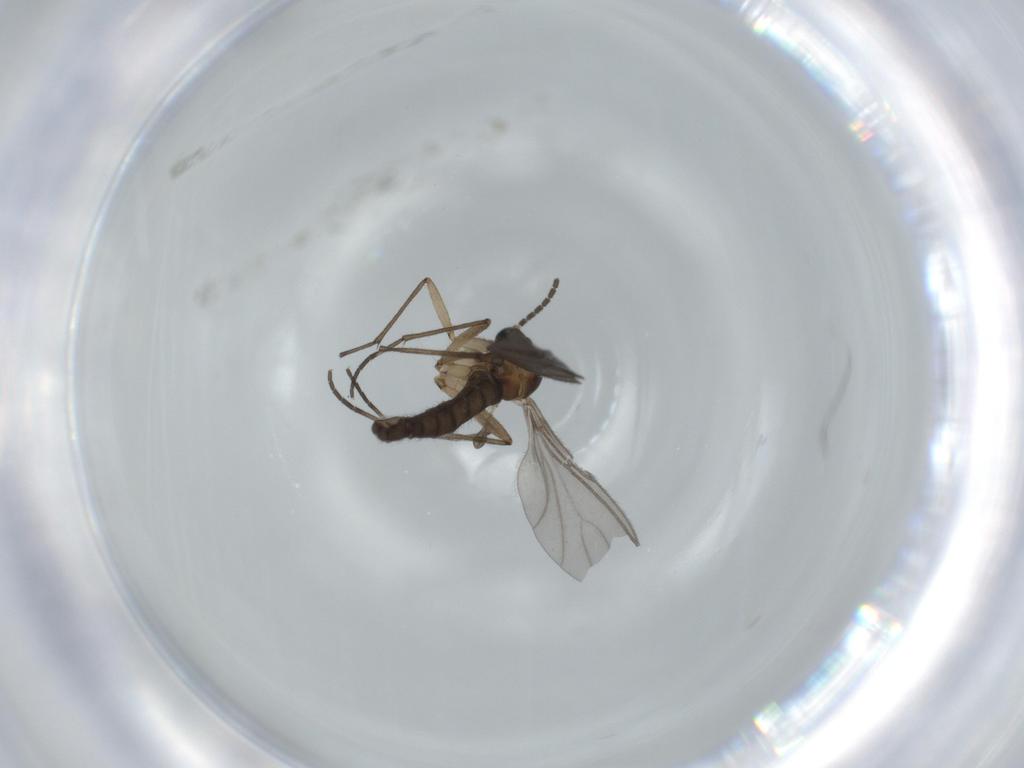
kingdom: Animalia
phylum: Arthropoda
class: Insecta
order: Diptera
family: Sciaridae
